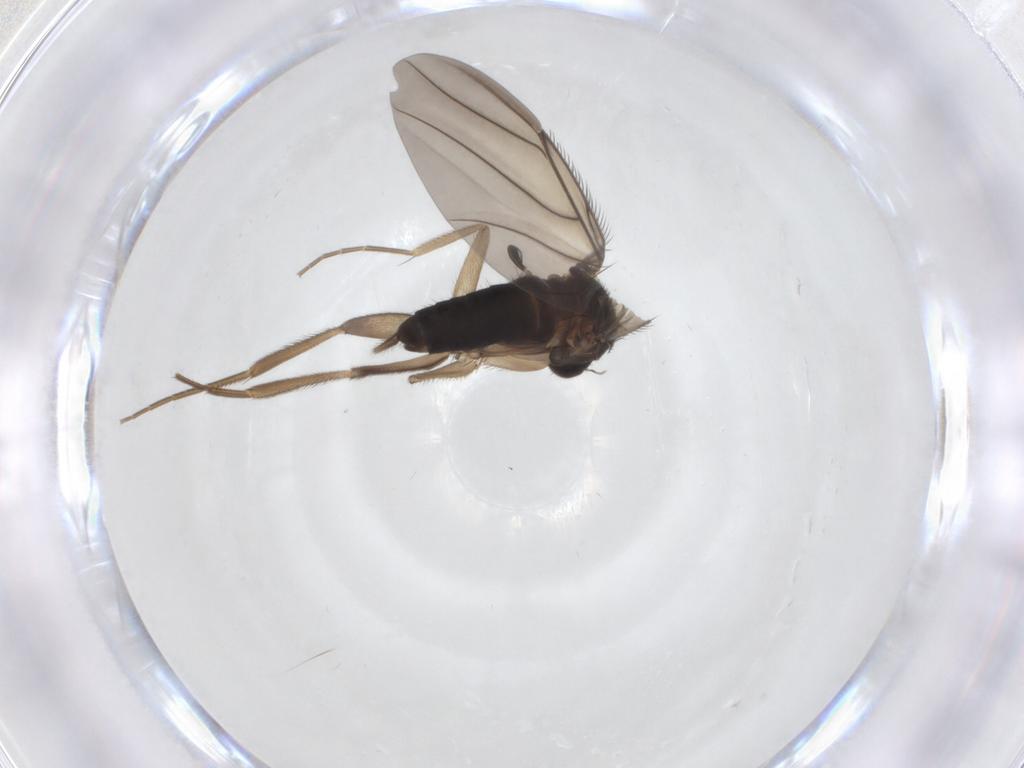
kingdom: Animalia
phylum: Arthropoda
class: Insecta
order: Diptera
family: Phoridae
